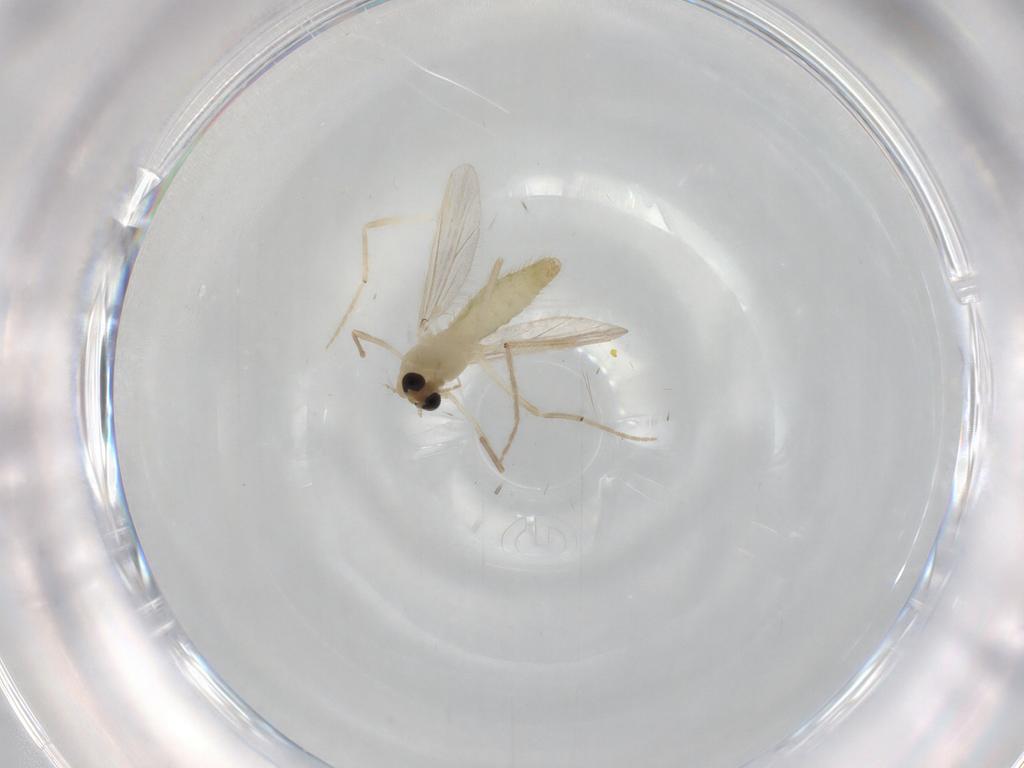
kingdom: Animalia
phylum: Arthropoda
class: Insecta
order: Diptera
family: Chironomidae
